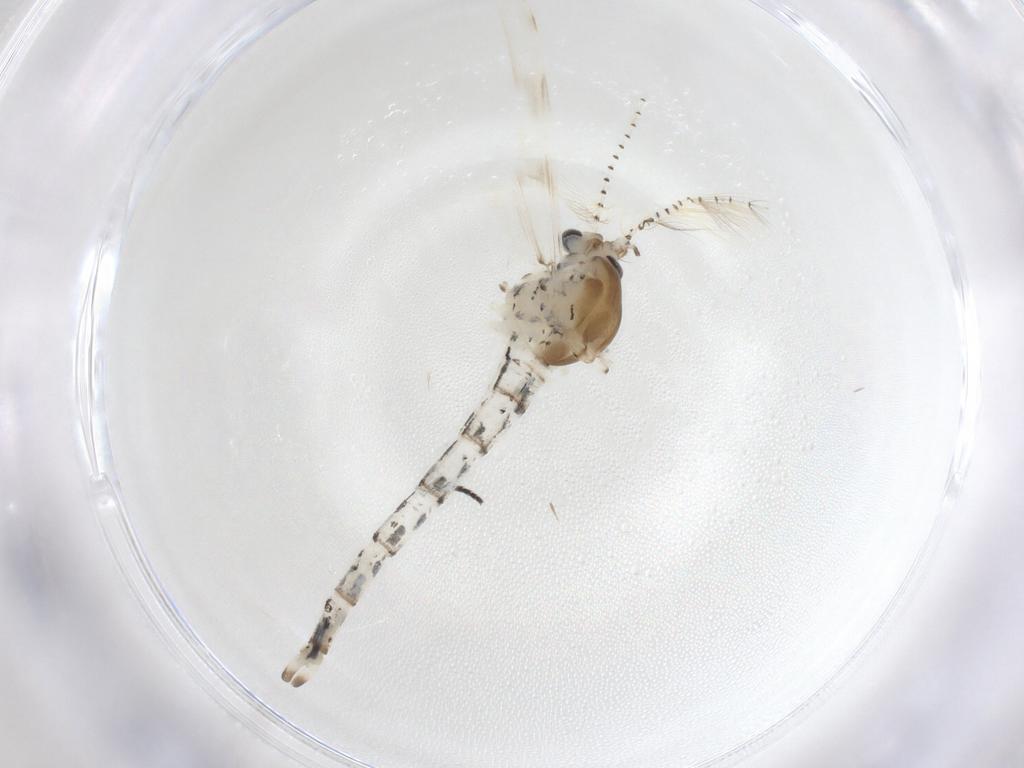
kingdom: Animalia
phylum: Arthropoda
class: Insecta
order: Diptera
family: Chaoboridae
